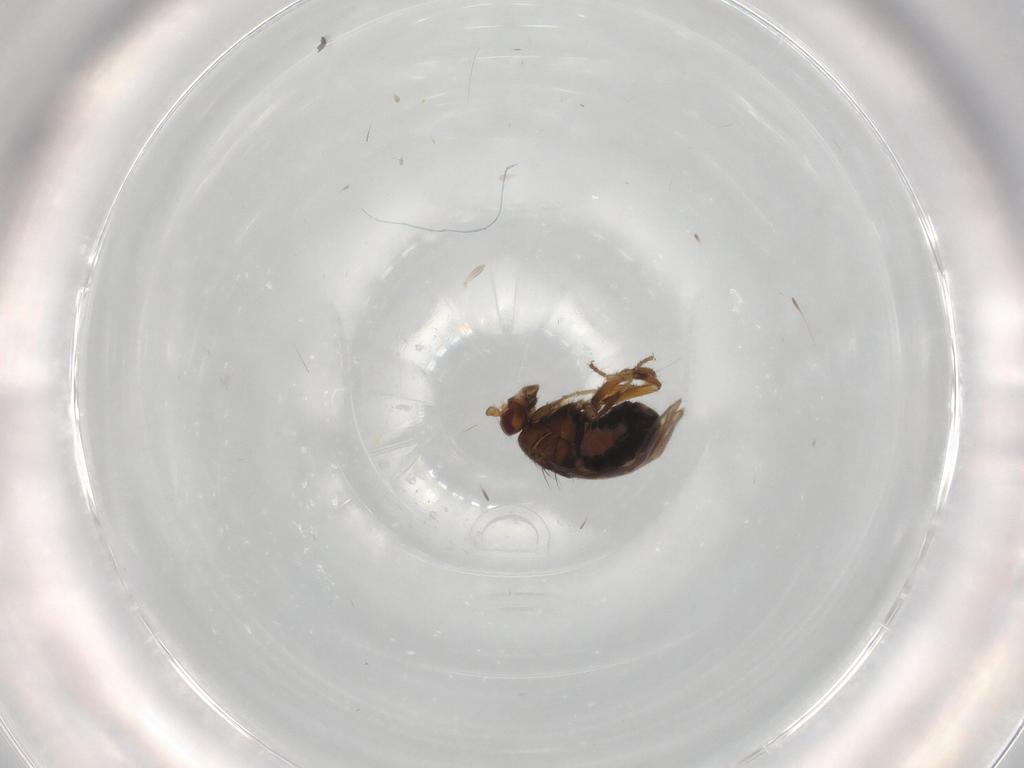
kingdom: Animalia
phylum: Arthropoda
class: Insecta
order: Diptera
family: Sphaeroceridae
